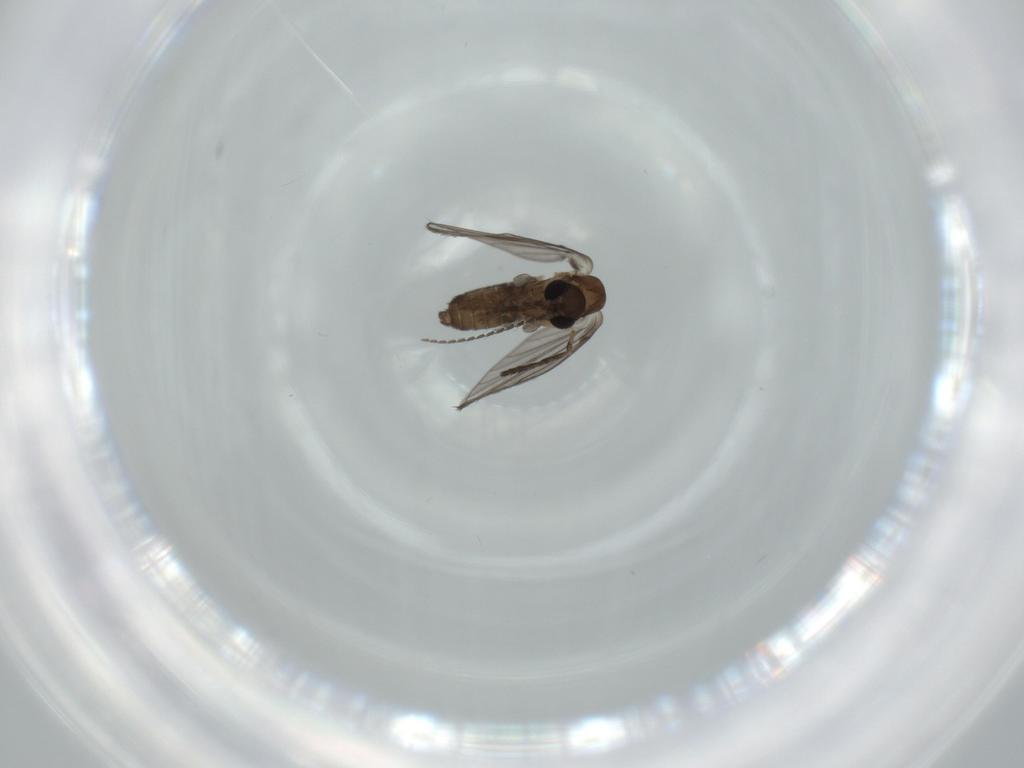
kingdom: Animalia
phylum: Arthropoda
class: Insecta
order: Diptera
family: Psychodidae
